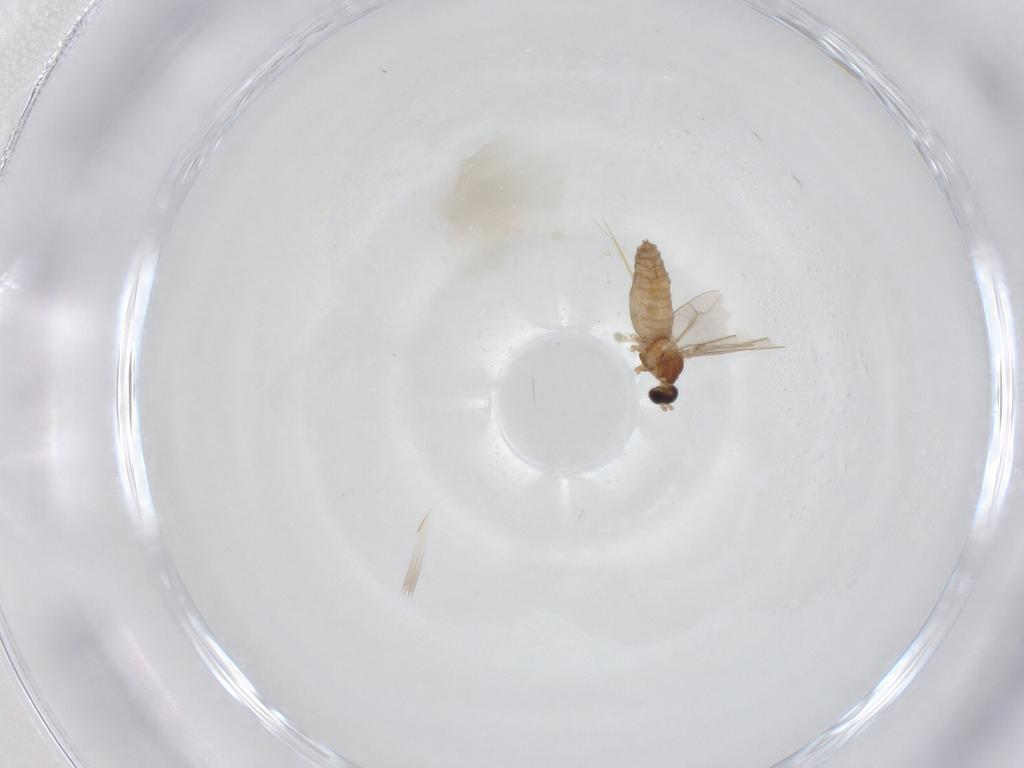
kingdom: Animalia
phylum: Arthropoda
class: Insecta
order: Diptera
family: Cecidomyiidae
